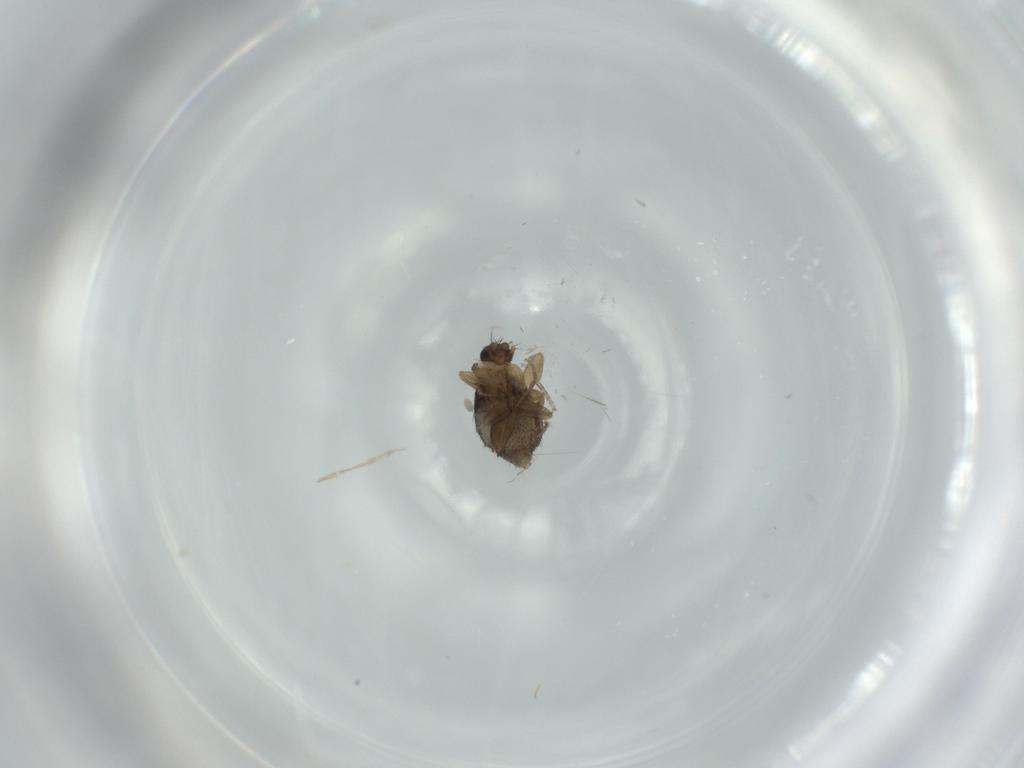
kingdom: Animalia
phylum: Arthropoda
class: Insecta
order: Diptera
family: Phoridae
